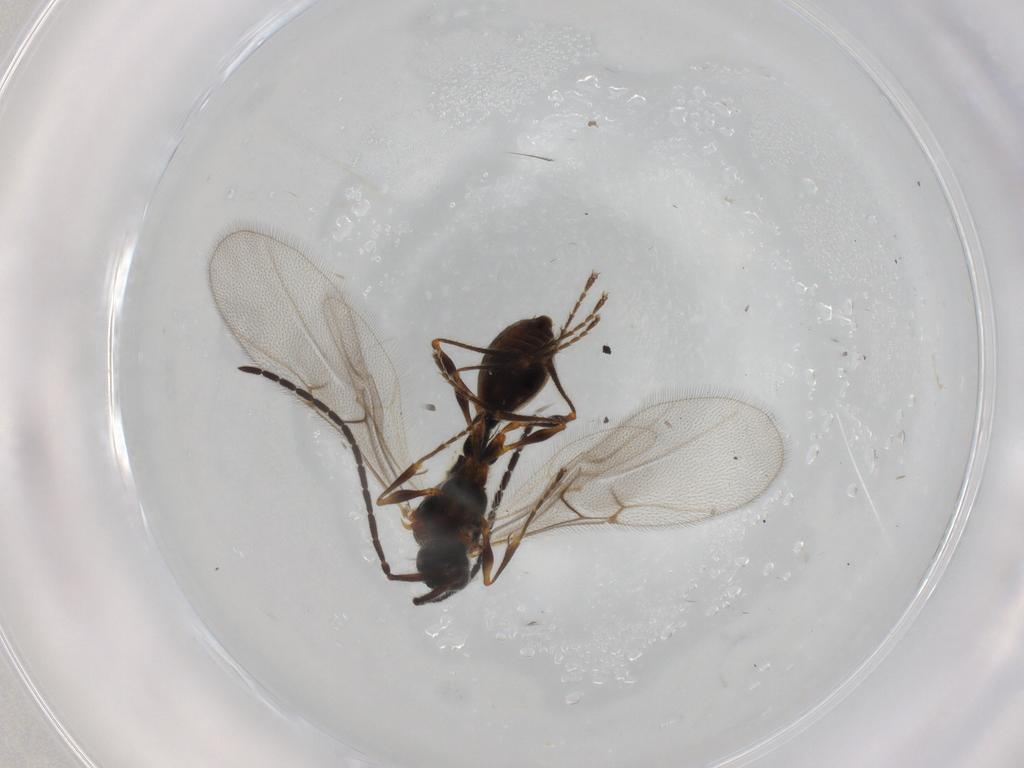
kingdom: Animalia
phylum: Arthropoda
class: Insecta
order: Hymenoptera
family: Diapriidae
